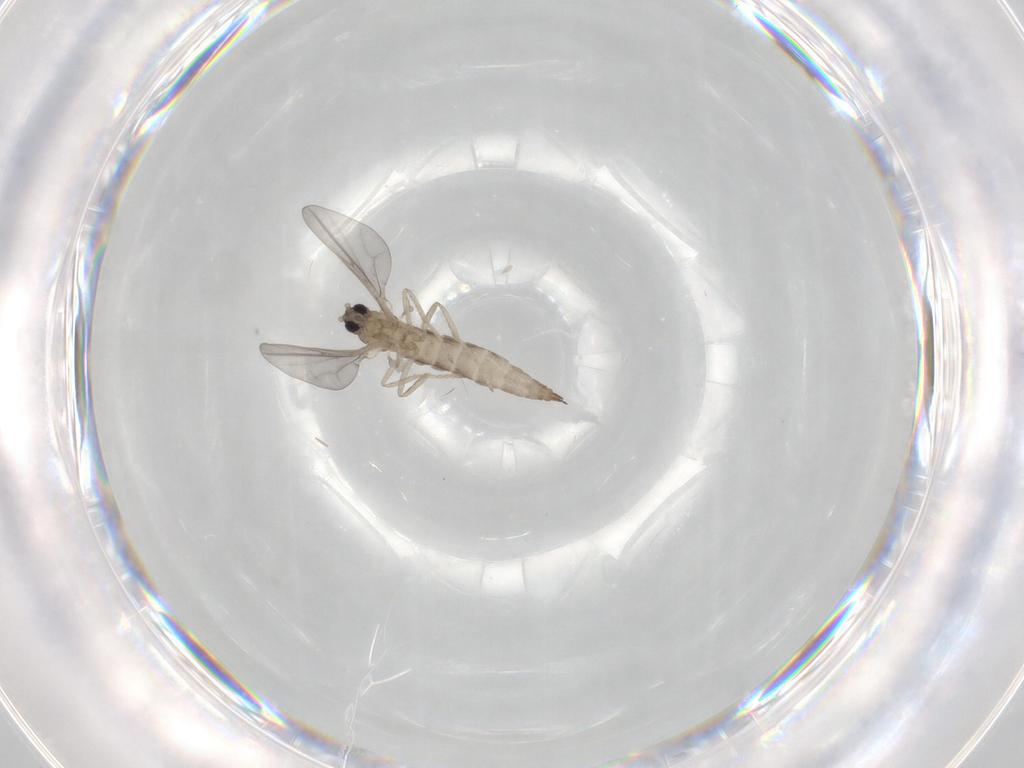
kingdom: Animalia
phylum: Arthropoda
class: Insecta
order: Diptera
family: Cecidomyiidae
